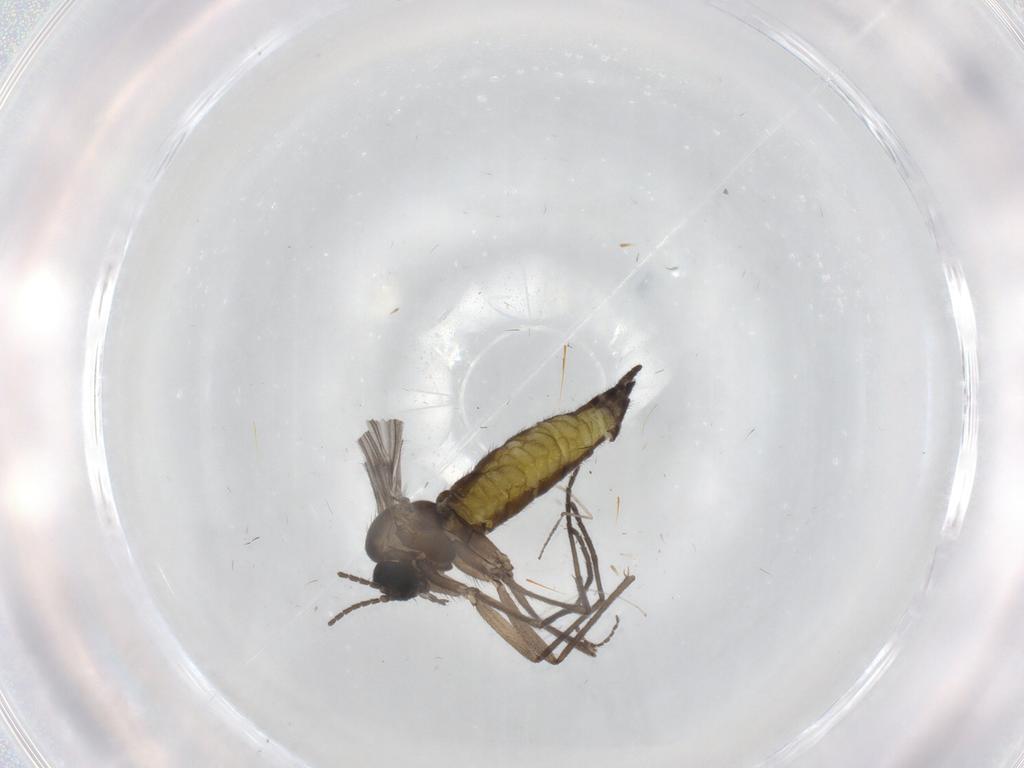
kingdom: Animalia
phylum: Arthropoda
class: Insecta
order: Diptera
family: Sciaridae
